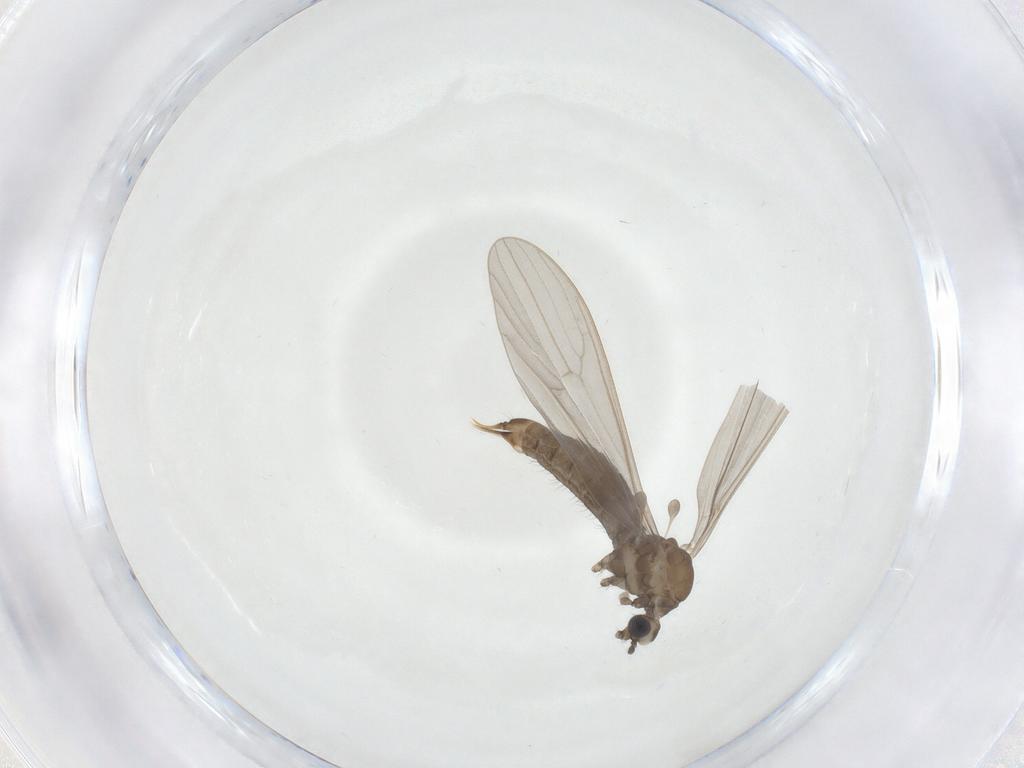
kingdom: Animalia
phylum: Arthropoda
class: Insecta
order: Diptera
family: Limoniidae
